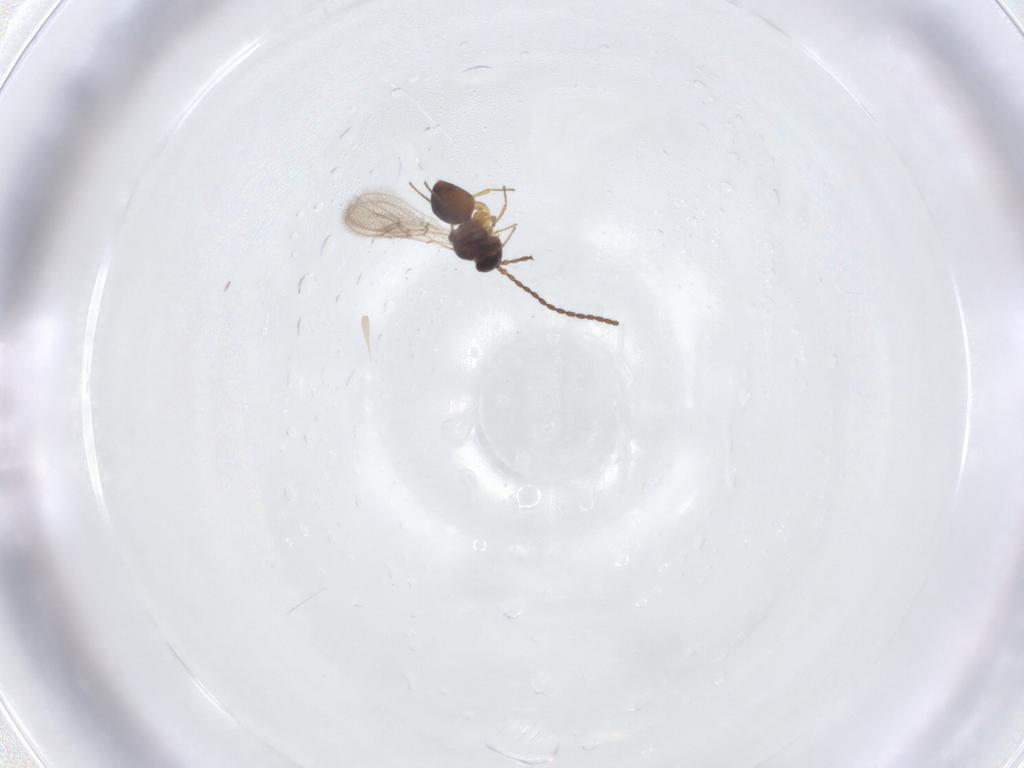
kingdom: Animalia
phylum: Arthropoda
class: Insecta
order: Hymenoptera
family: Figitidae
